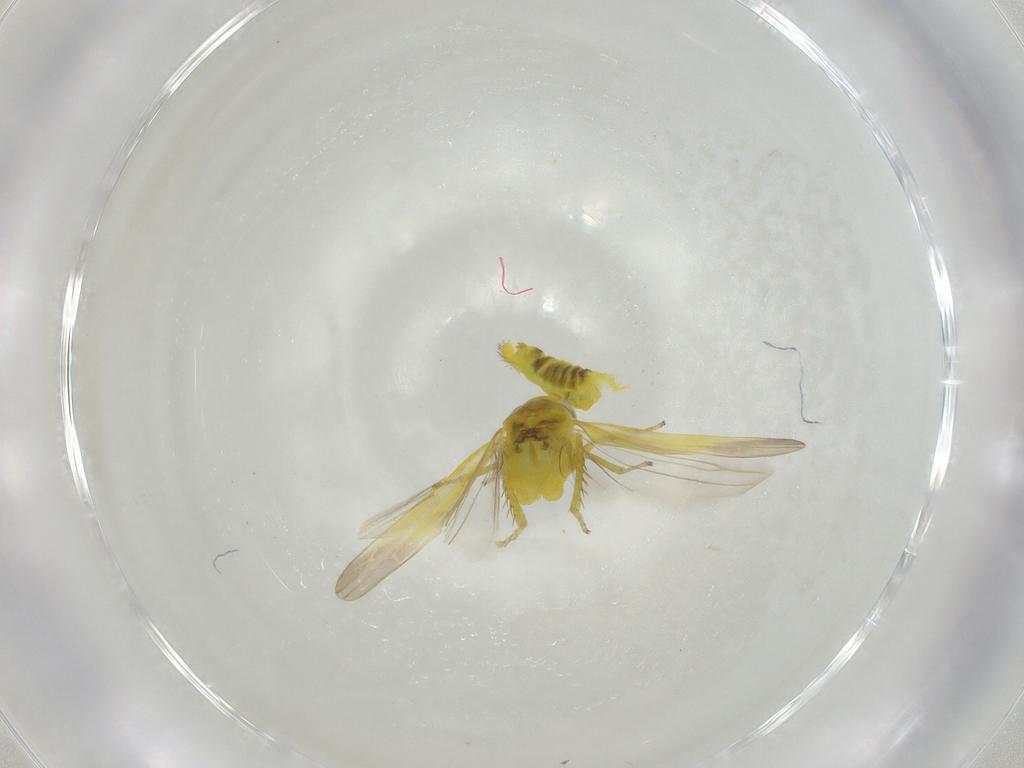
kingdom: Animalia
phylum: Arthropoda
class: Insecta
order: Hemiptera
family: Cicadellidae
